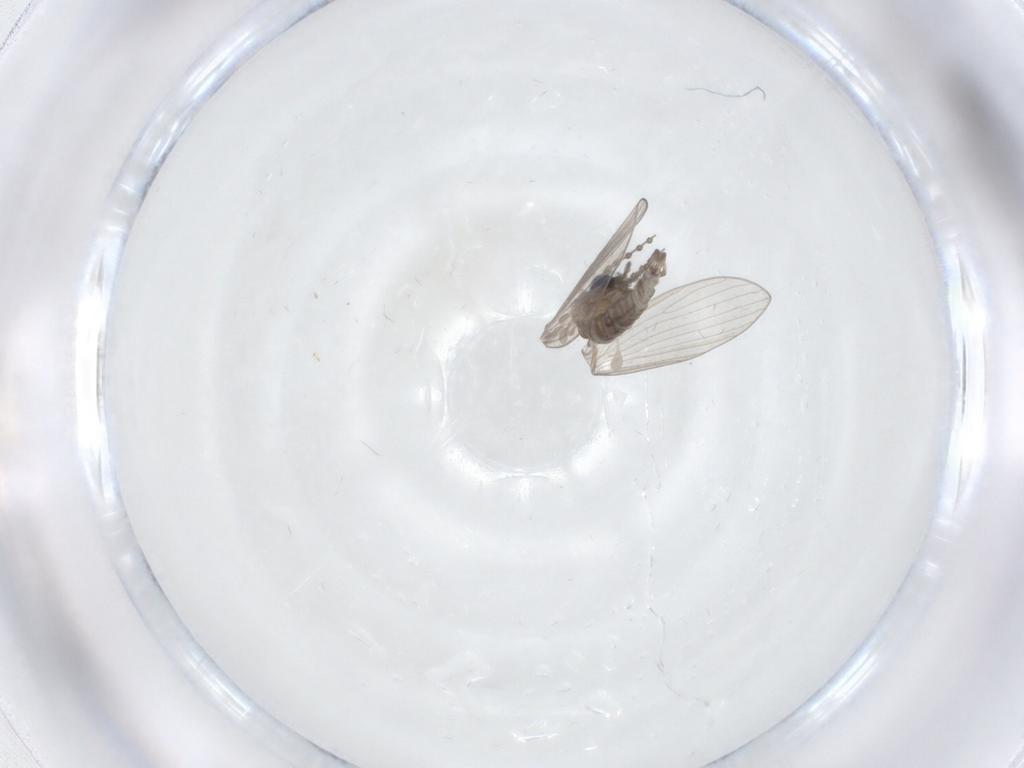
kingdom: Animalia
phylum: Arthropoda
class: Insecta
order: Diptera
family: Psychodidae
